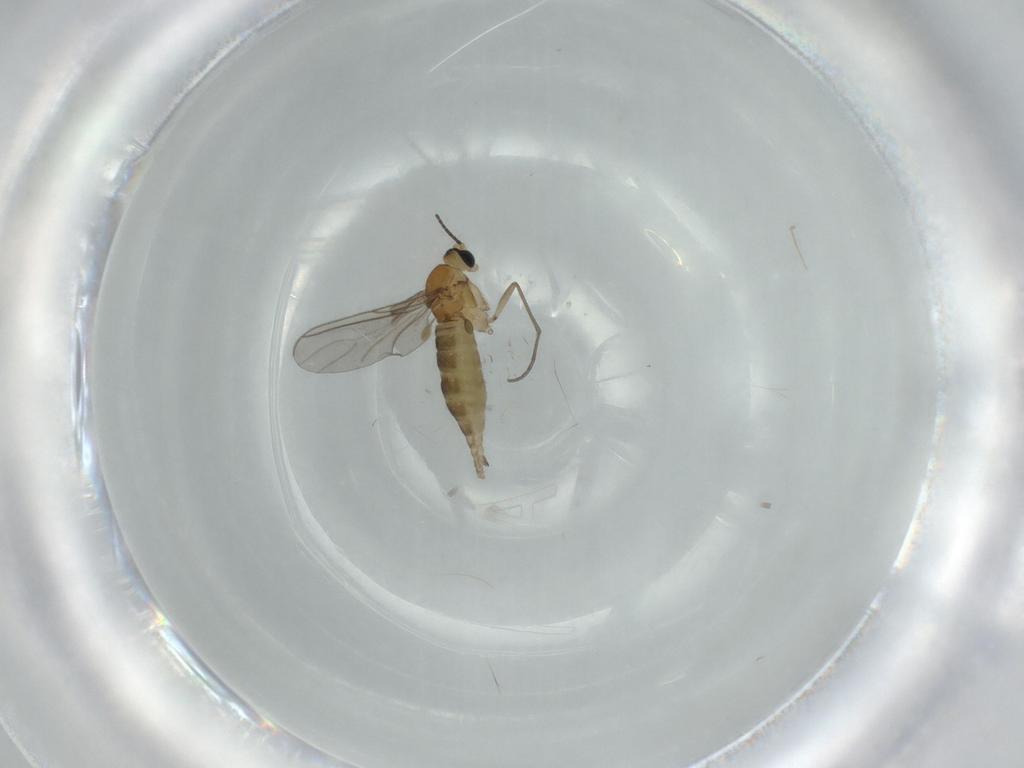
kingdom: Animalia
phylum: Arthropoda
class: Insecta
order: Diptera
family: Sciaridae
